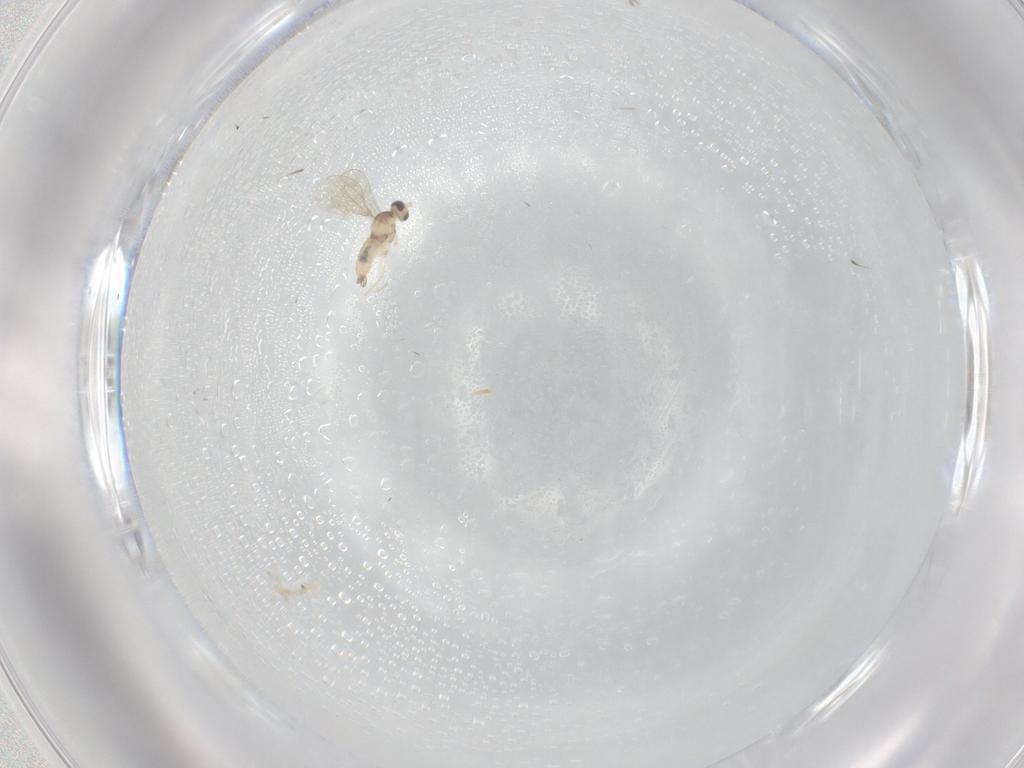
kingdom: Animalia
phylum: Arthropoda
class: Insecta
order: Diptera
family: Cecidomyiidae
